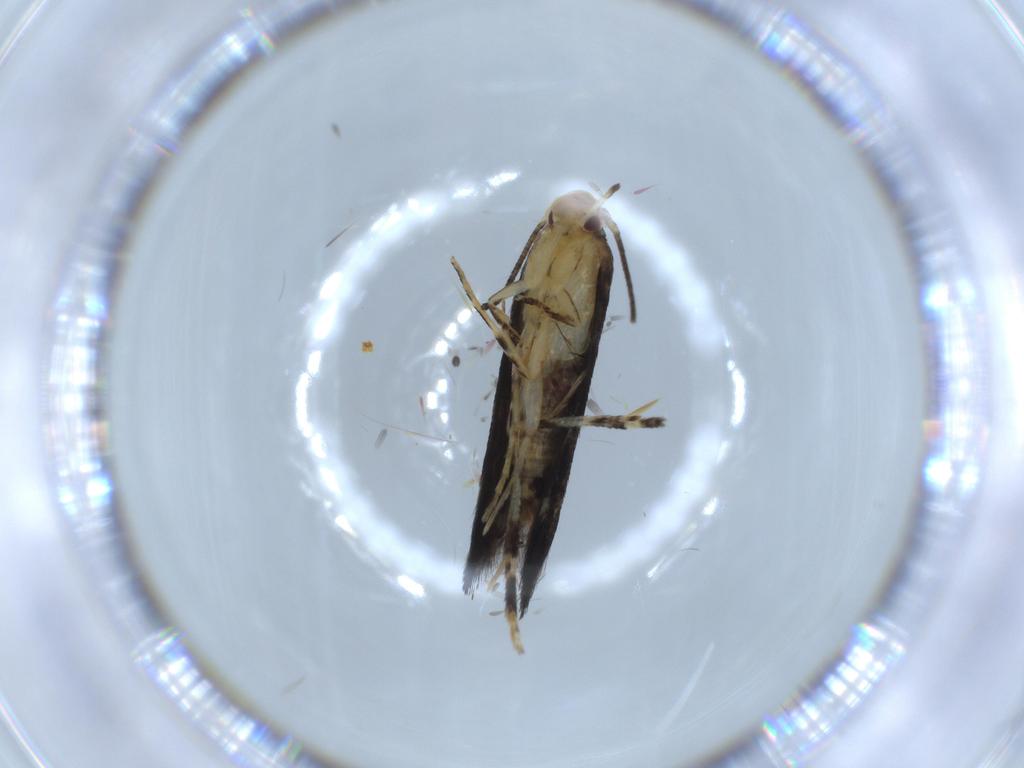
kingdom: Animalia
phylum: Arthropoda
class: Insecta
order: Lepidoptera
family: Momphidae
